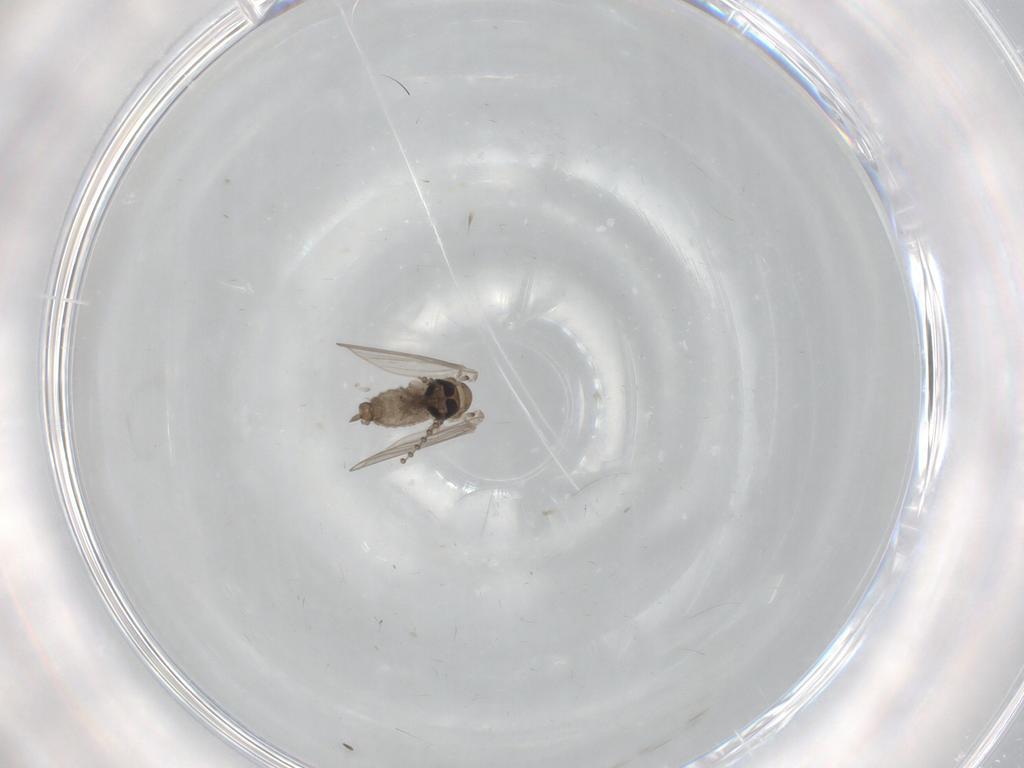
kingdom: Animalia
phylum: Arthropoda
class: Insecta
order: Diptera
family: Psychodidae
